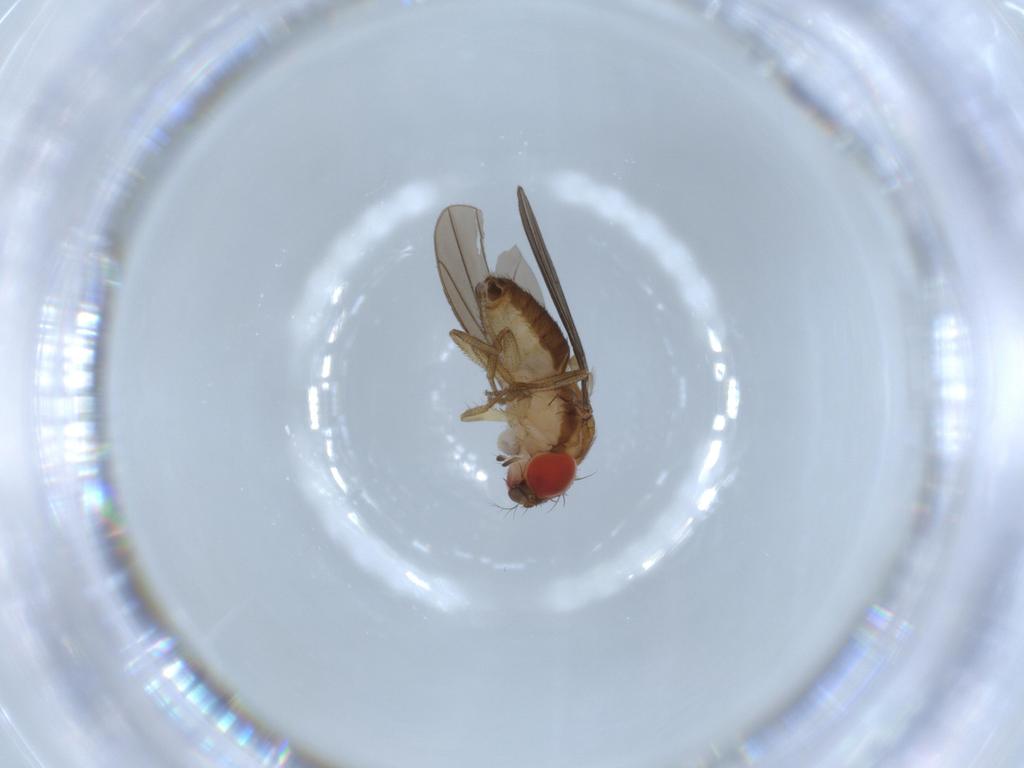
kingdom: Animalia
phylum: Arthropoda
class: Insecta
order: Diptera
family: Drosophilidae
